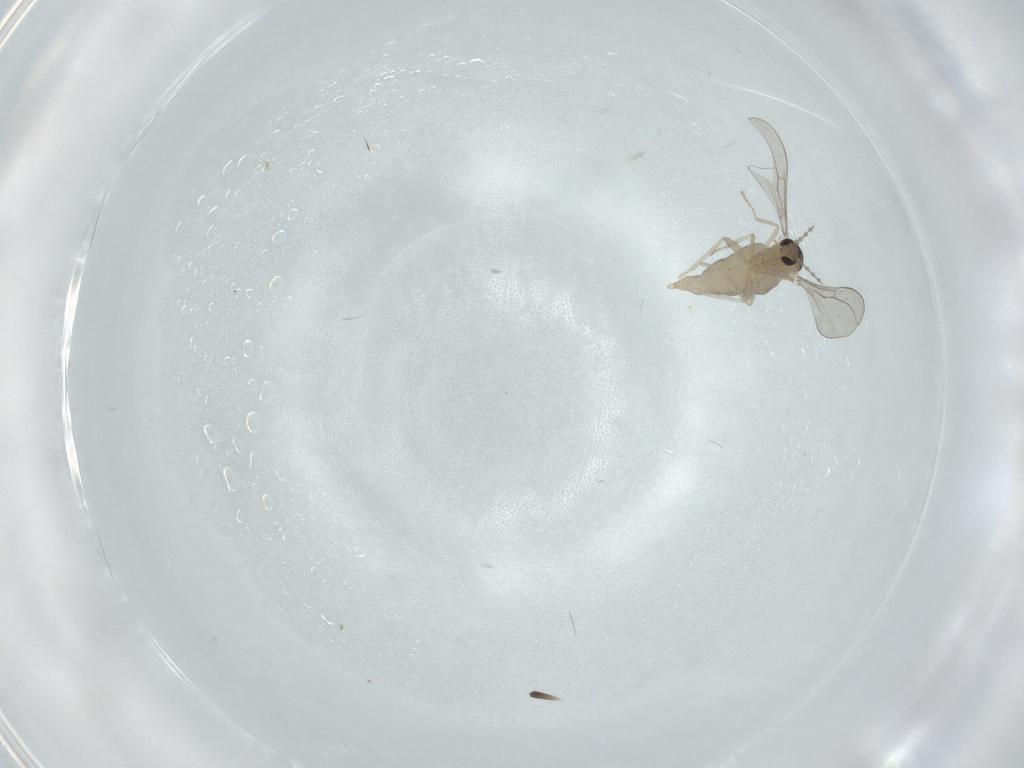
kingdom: Animalia
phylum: Arthropoda
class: Insecta
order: Diptera
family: Cecidomyiidae
